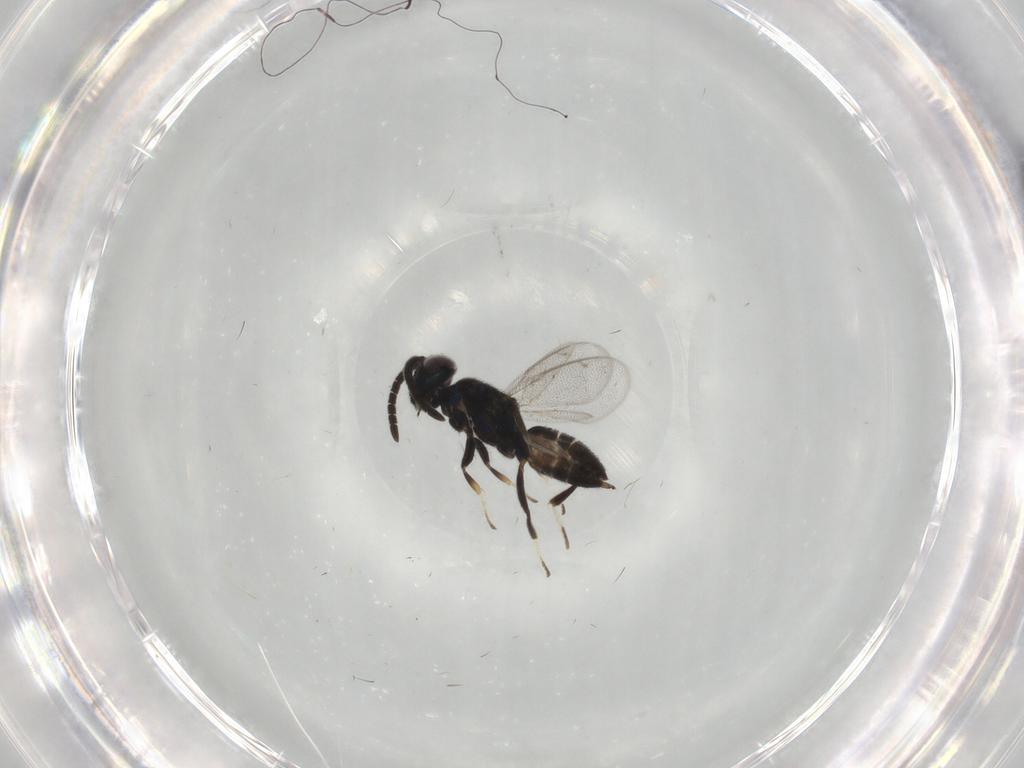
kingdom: Animalia
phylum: Arthropoda
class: Insecta
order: Hymenoptera
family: Eupelmidae
